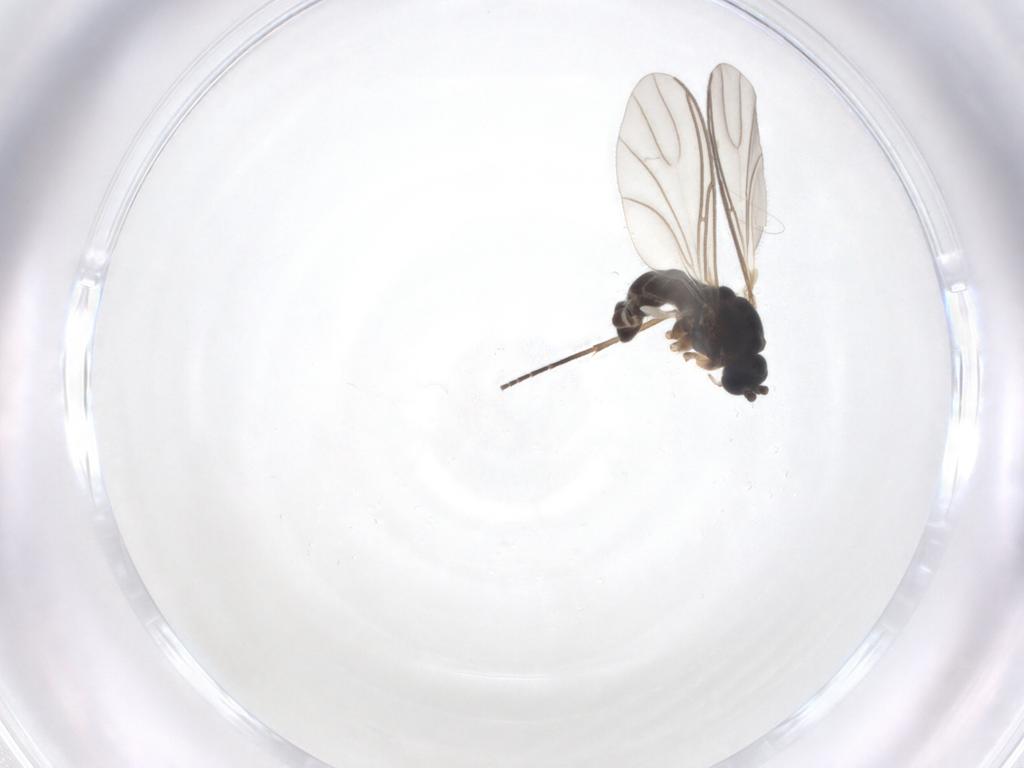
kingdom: Animalia
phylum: Arthropoda
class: Insecta
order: Diptera
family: Sciaridae
